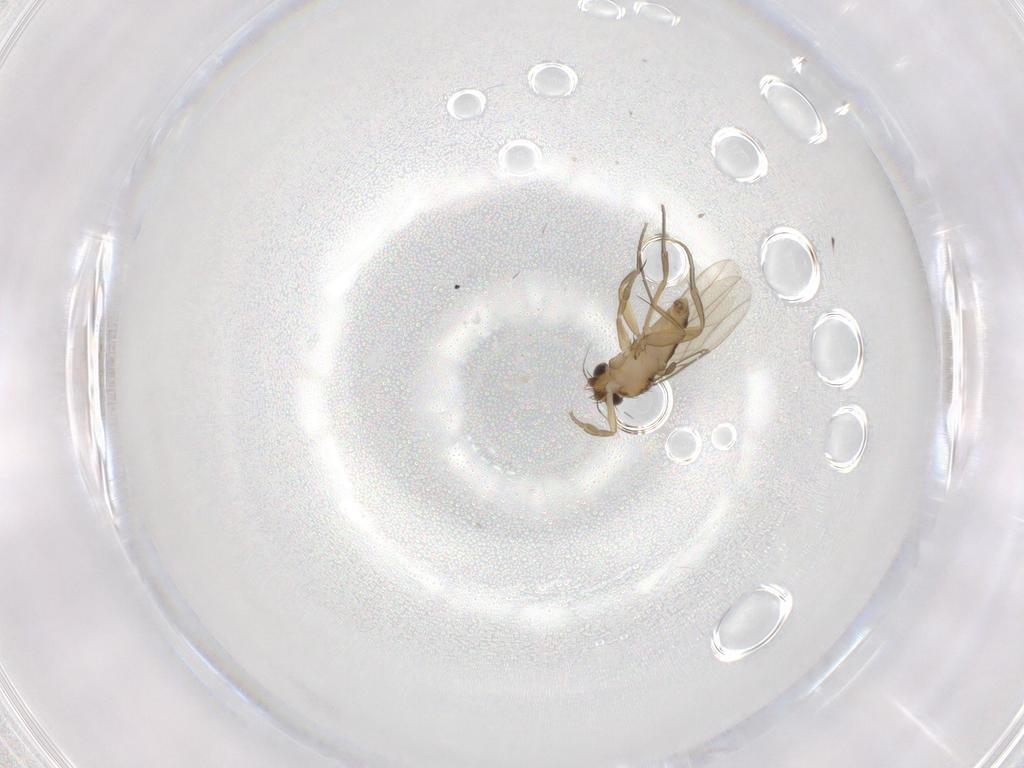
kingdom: Animalia
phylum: Arthropoda
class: Insecta
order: Diptera
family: Phoridae
